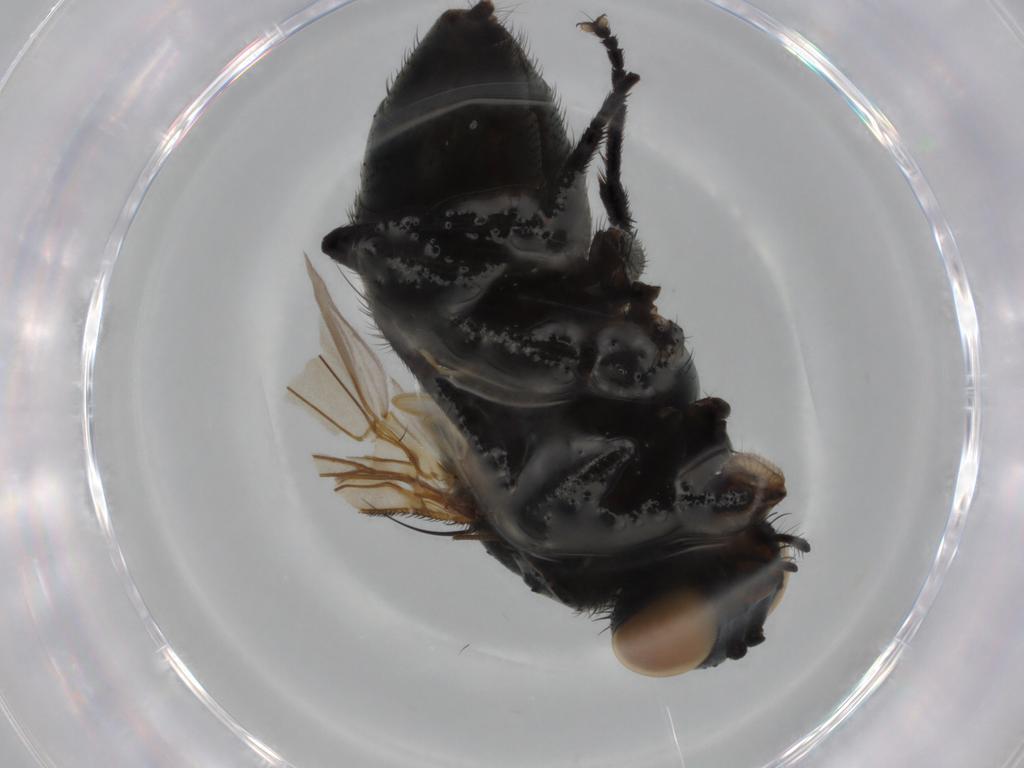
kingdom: Animalia
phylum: Arthropoda
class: Insecta
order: Diptera
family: Muscidae
